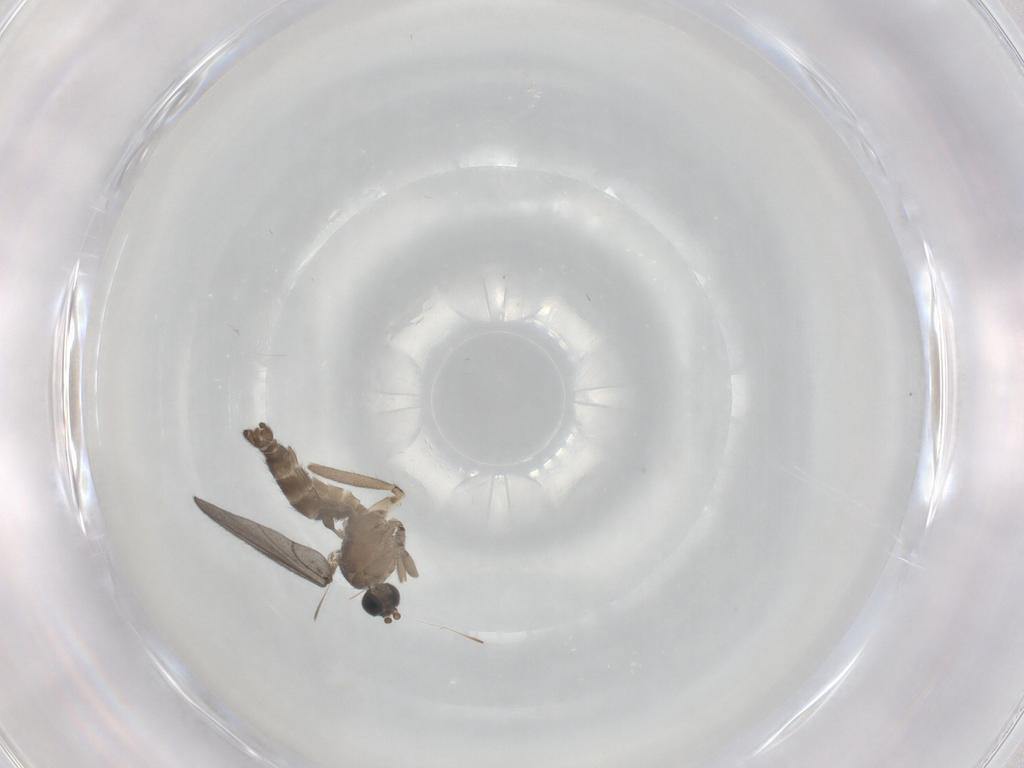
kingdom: Animalia
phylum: Arthropoda
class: Insecta
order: Diptera
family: Sciaridae
